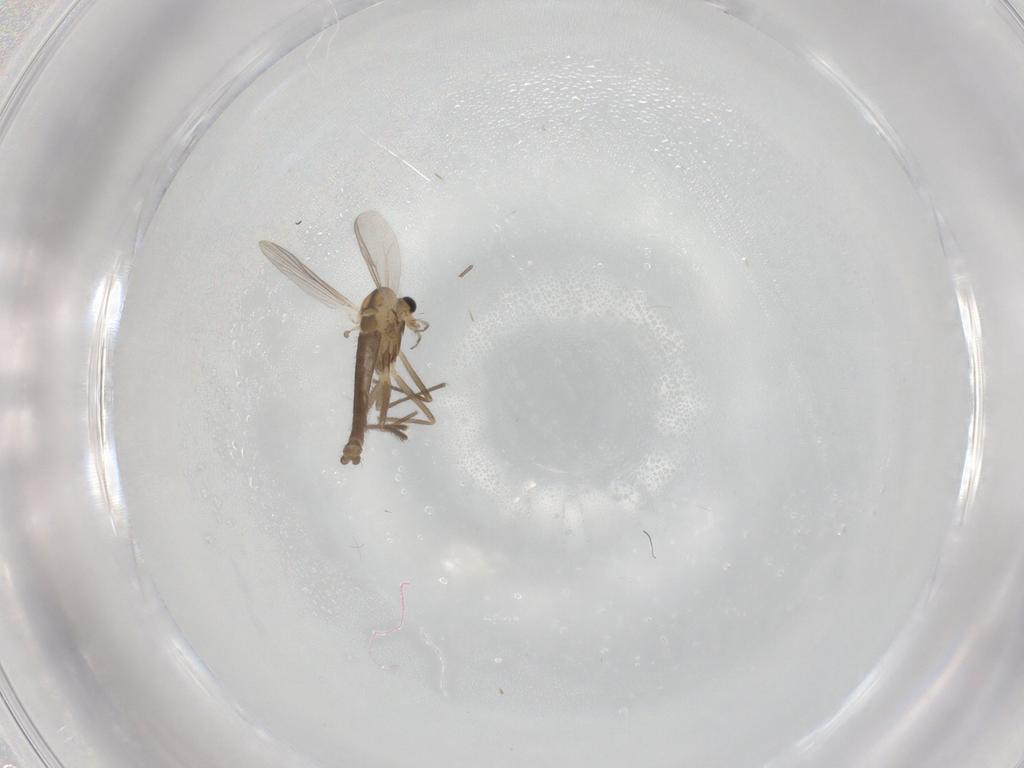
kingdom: Animalia
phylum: Arthropoda
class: Insecta
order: Diptera
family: Chironomidae
